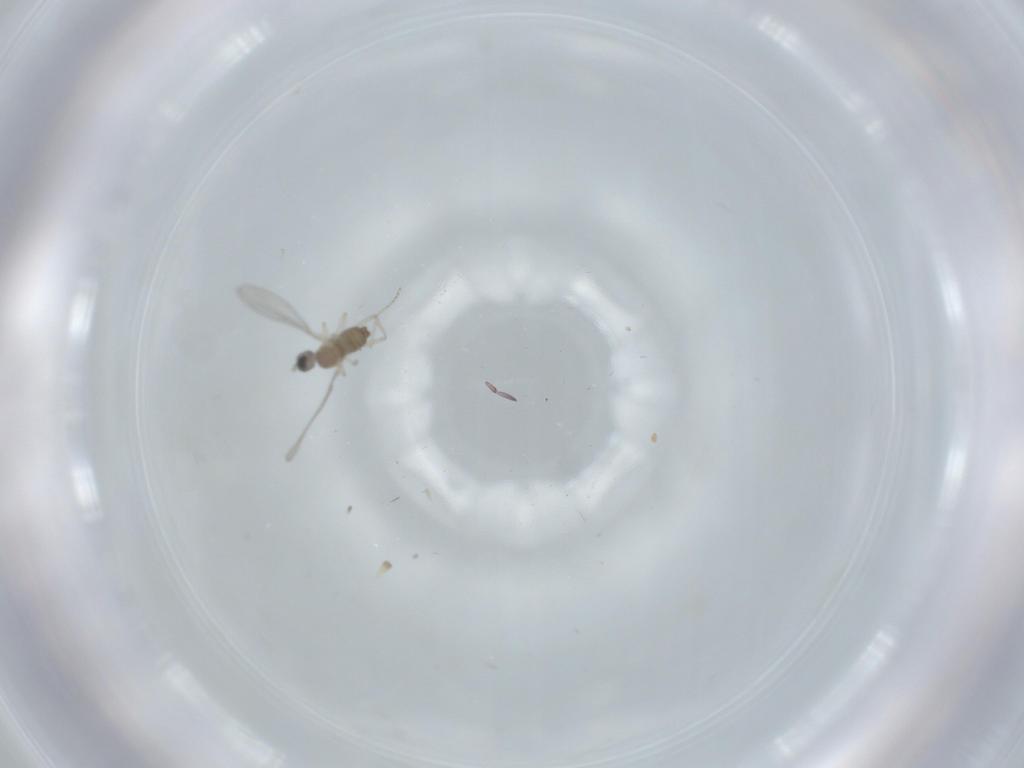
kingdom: Animalia
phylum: Arthropoda
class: Insecta
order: Diptera
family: Cecidomyiidae
